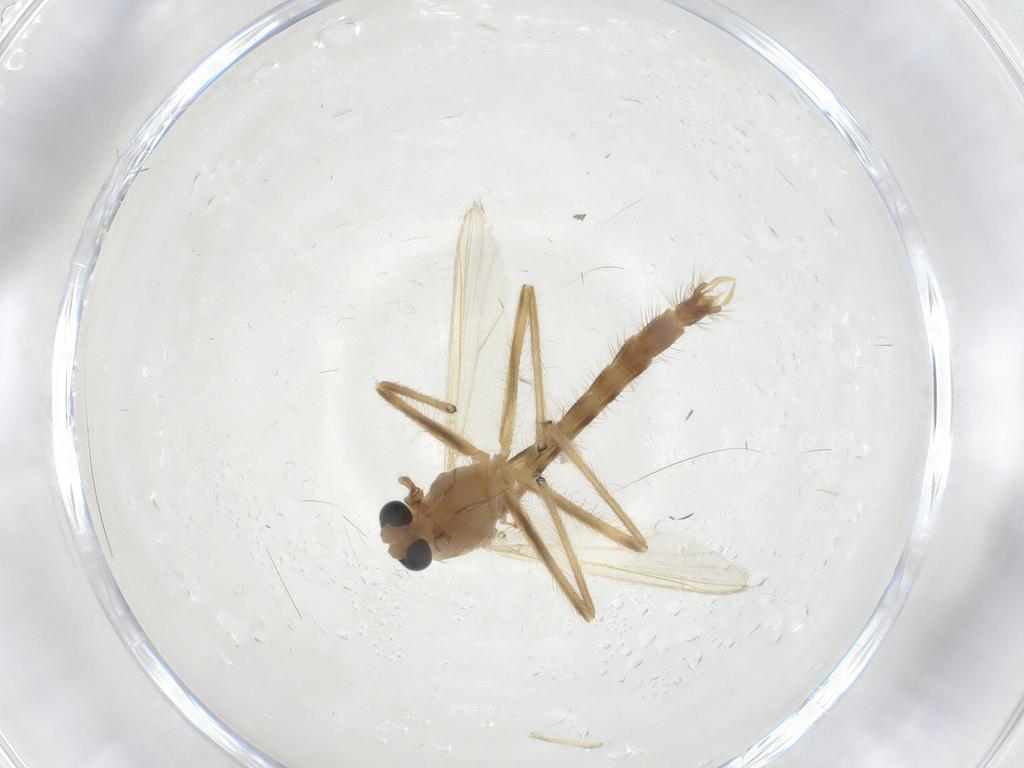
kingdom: Animalia
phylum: Arthropoda
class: Insecta
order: Diptera
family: Chironomidae
